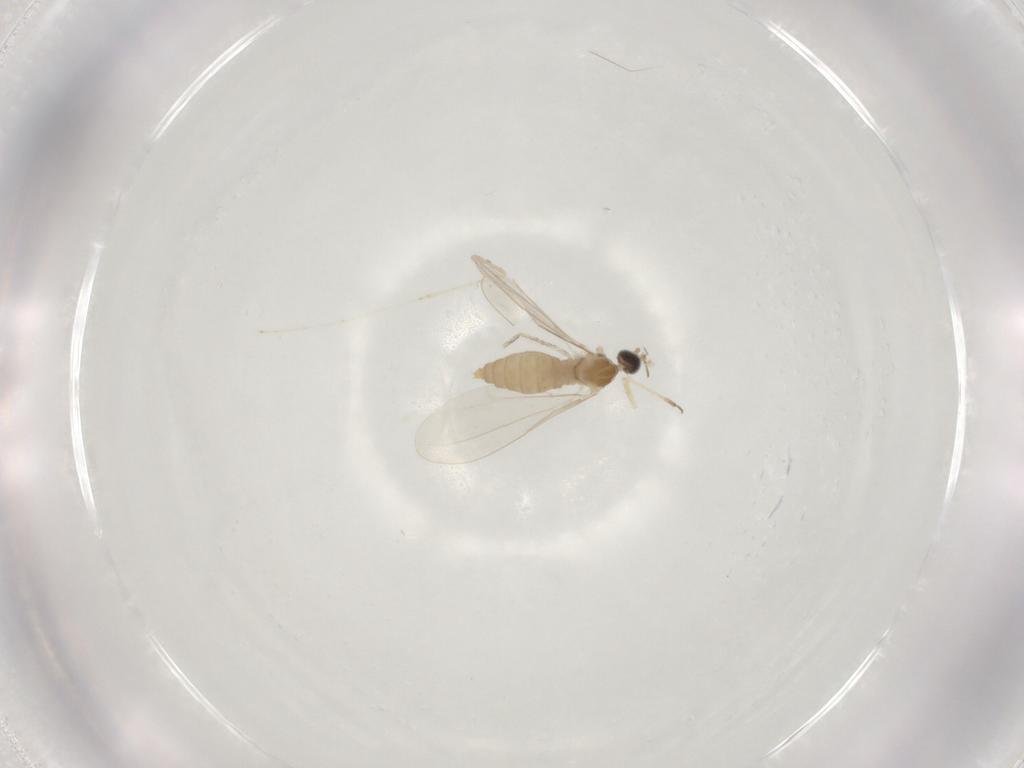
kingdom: Animalia
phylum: Arthropoda
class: Insecta
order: Diptera
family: Cecidomyiidae
